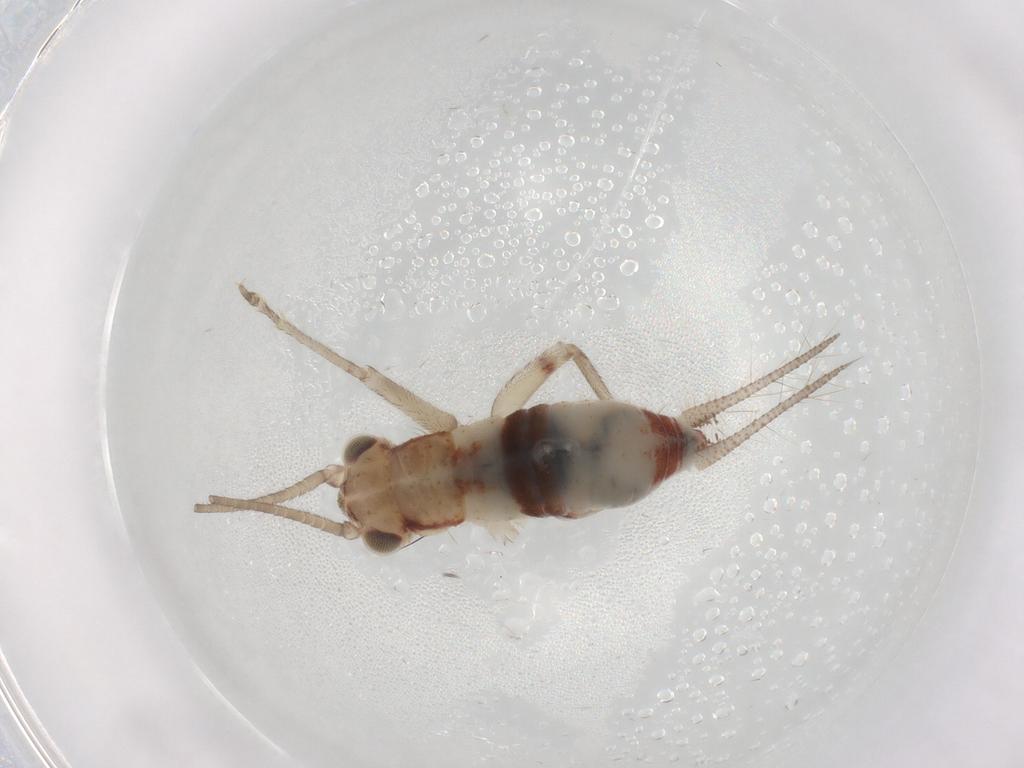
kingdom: Animalia
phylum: Arthropoda
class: Insecta
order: Orthoptera
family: Trigonidiidae
